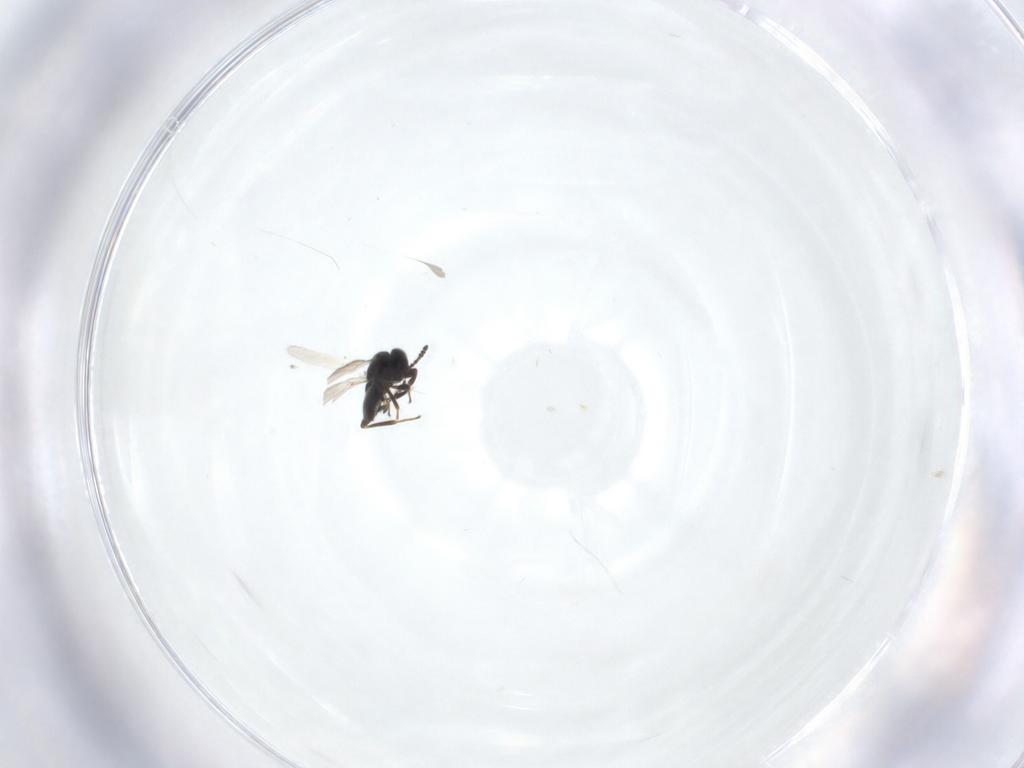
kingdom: Animalia
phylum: Arthropoda
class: Insecta
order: Hymenoptera
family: Platygastridae
